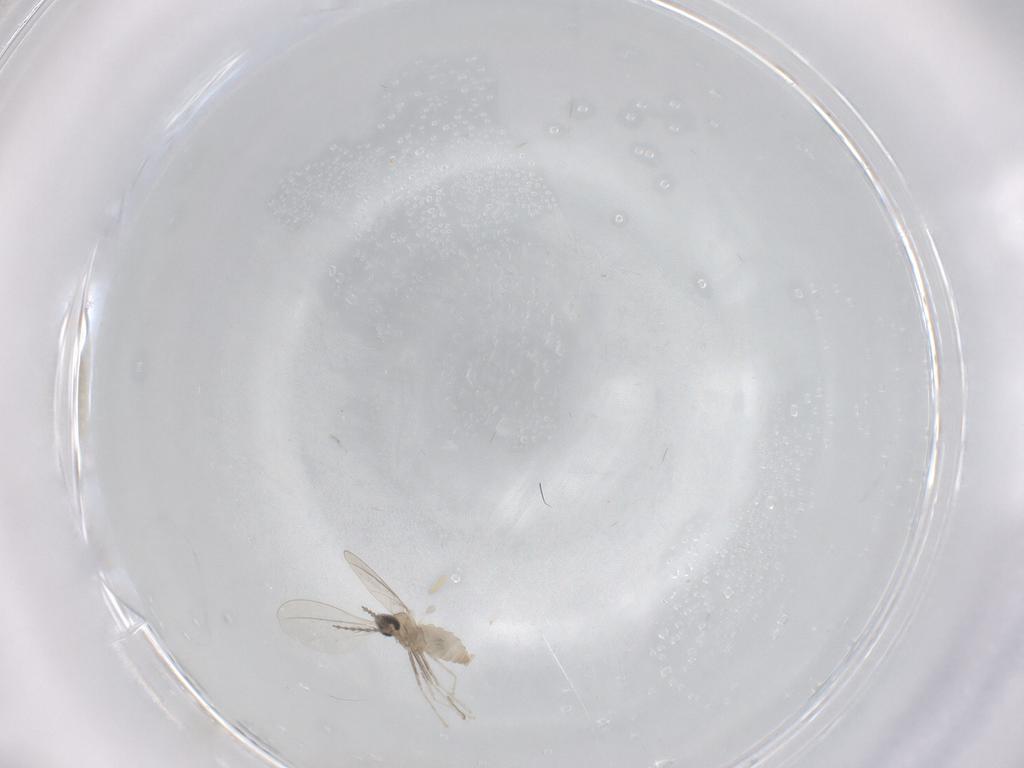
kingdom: Animalia
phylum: Arthropoda
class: Insecta
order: Diptera
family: Cecidomyiidae
